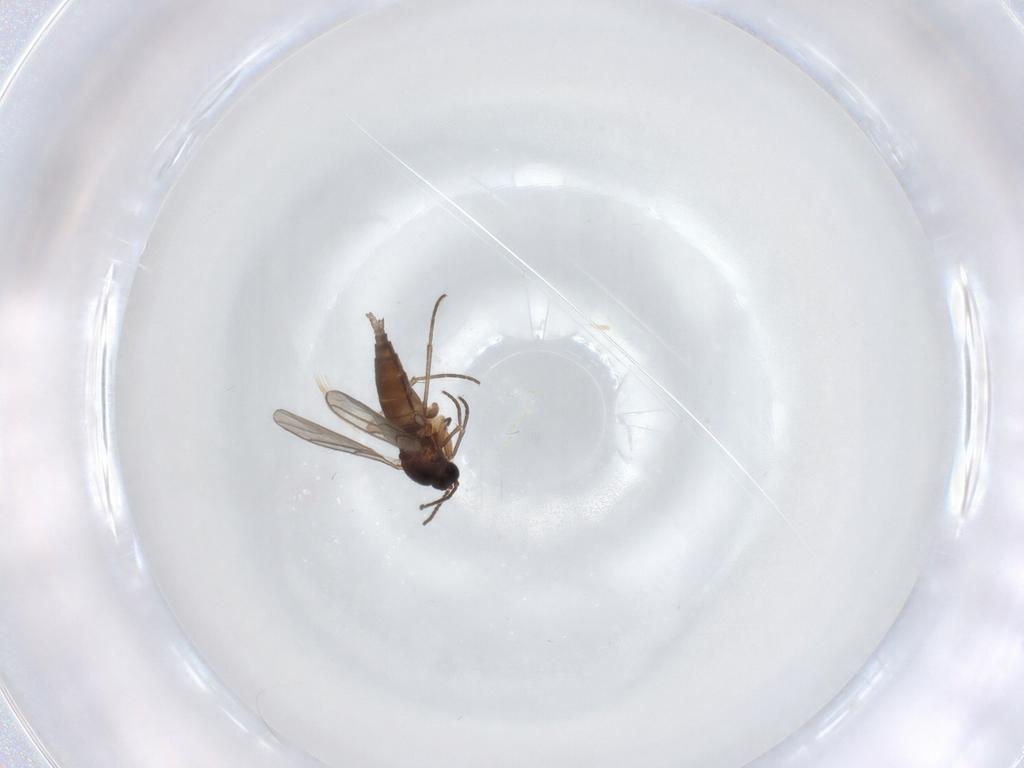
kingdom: Animalia
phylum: Arthropoda
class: Insecta
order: Diptera
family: Sciaridae
